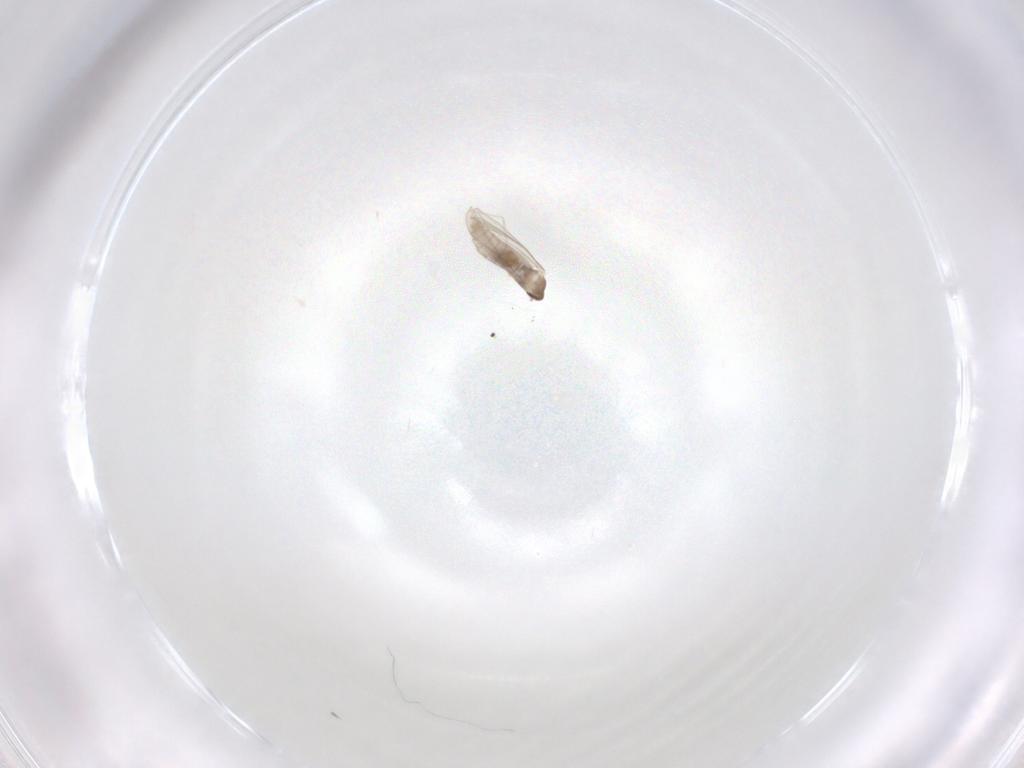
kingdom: Animalia
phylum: Arthropoda
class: Insecta
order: Diptera
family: Cecidomyiidae
